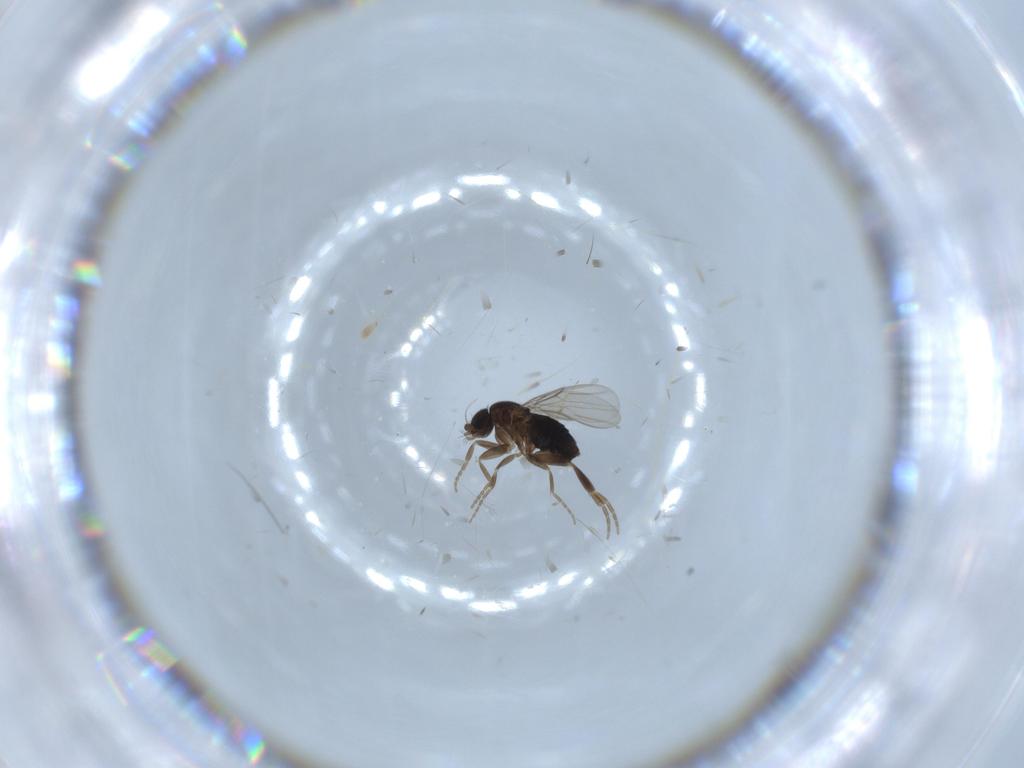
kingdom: Animalia
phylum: Arthropoda
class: Insecta
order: Diptera
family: Phoridae
